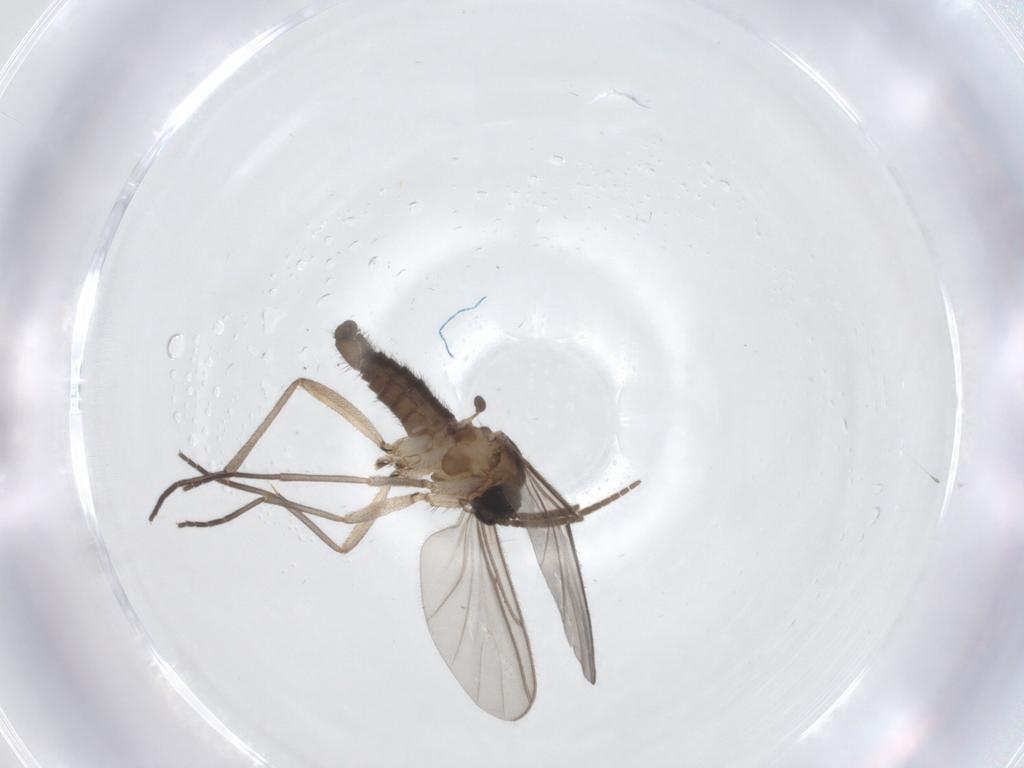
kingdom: Animalia
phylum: Arthropoda
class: Insecta
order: Diptera
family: Sciaridae
